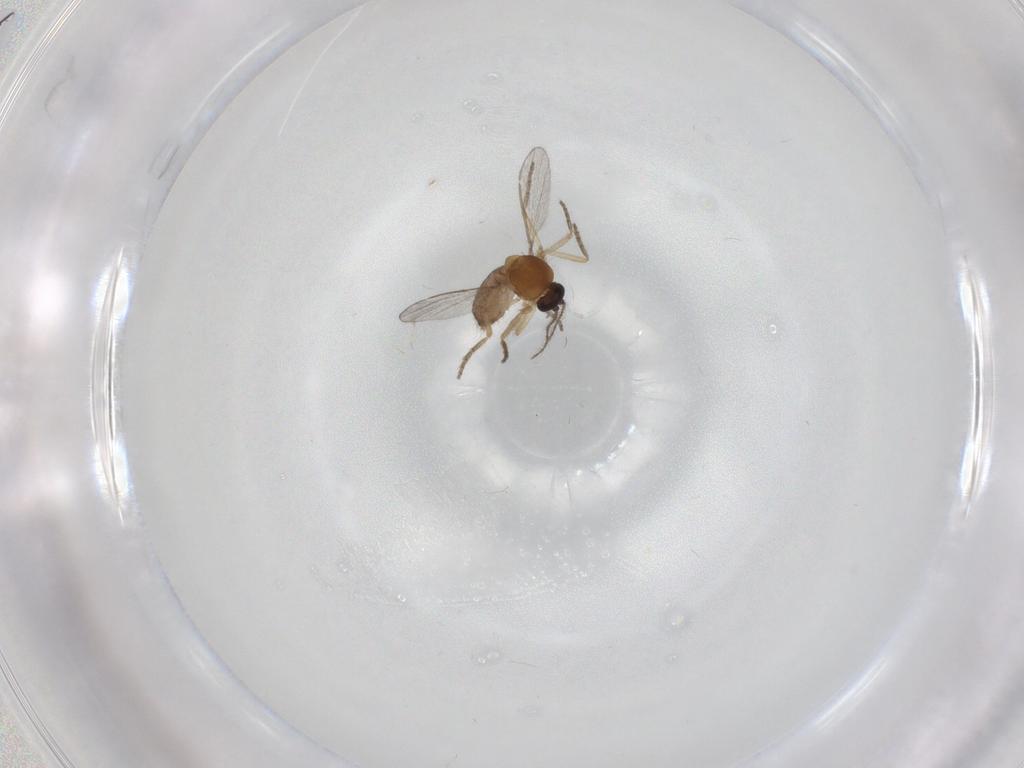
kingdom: Animalia
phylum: Arthropoda
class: Insecta
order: Diptera
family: Ceratopogonidae
